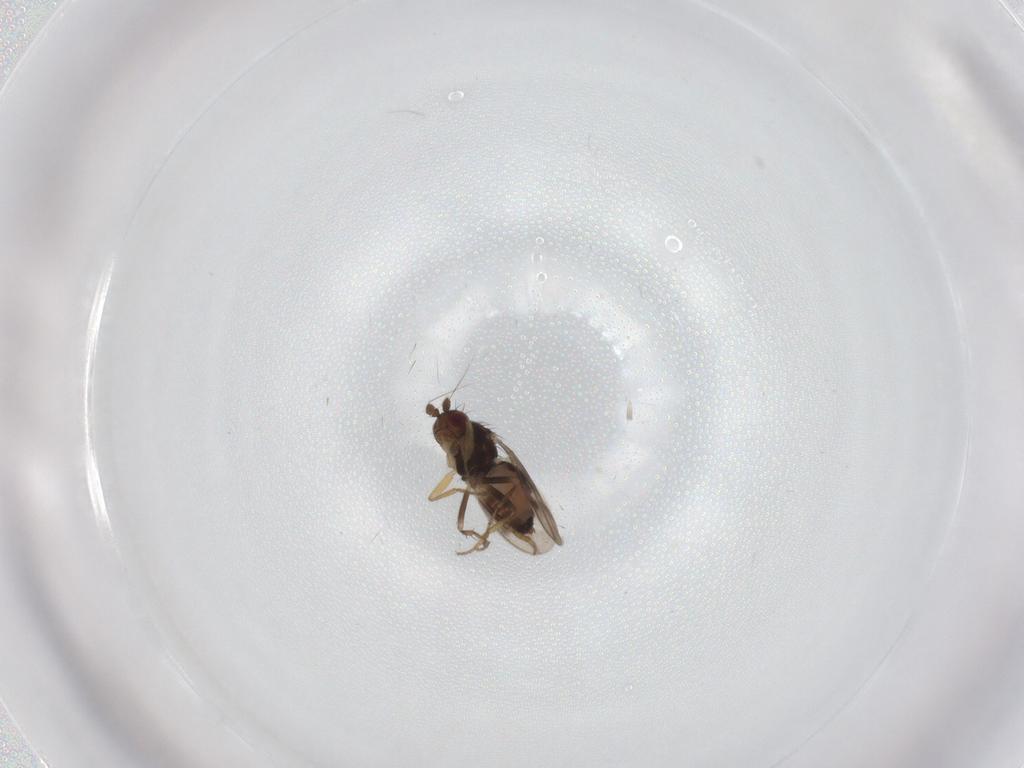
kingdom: Animalia
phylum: Arthropoda
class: Insecta
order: Diptera
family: Sphaeroceridae
